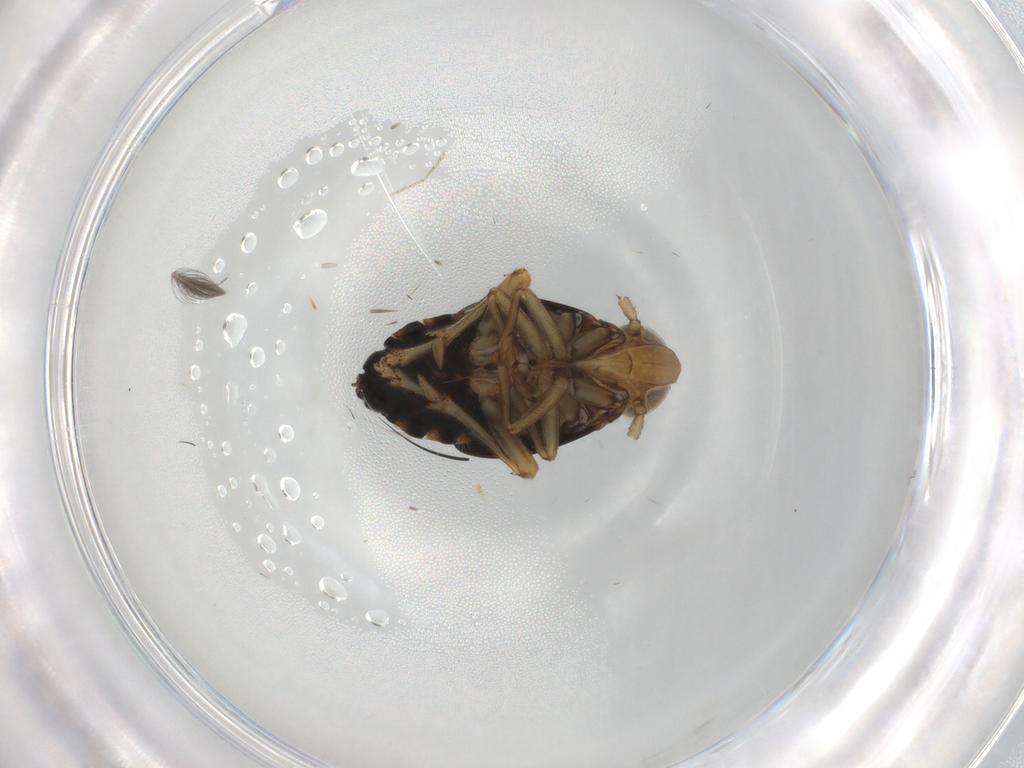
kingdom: Animalia
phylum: Arthropoda
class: Insecta
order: Hemiptera
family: Delphacidae
